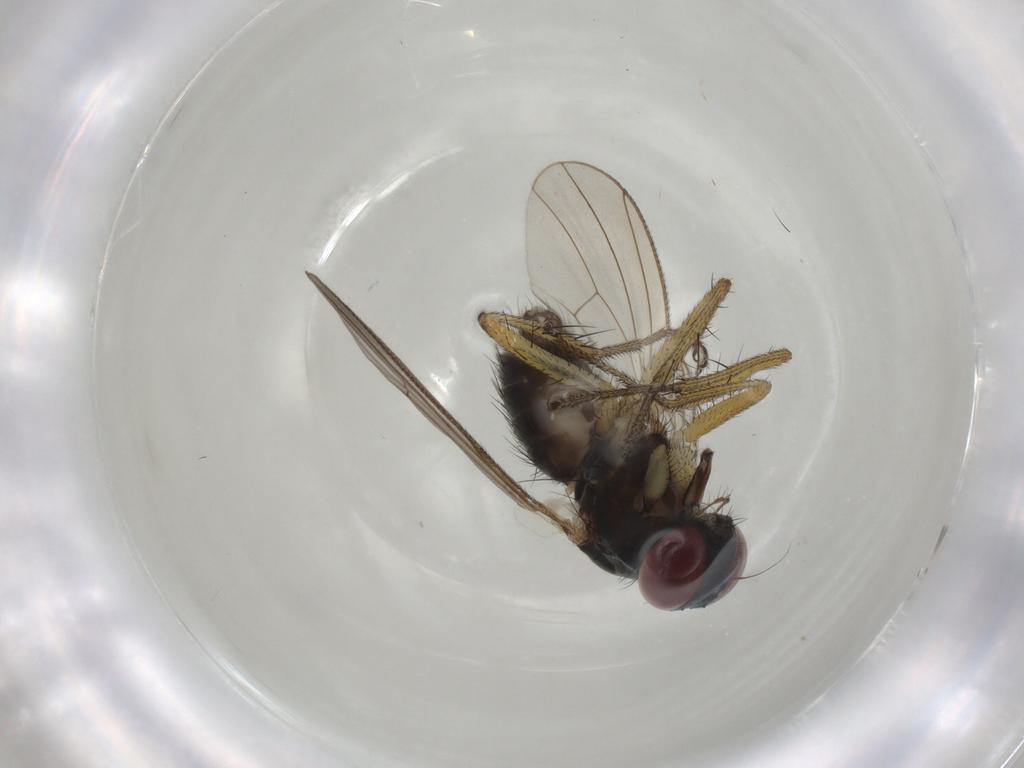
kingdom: Animalia
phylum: Arthropoda
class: Insecta
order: Diptera
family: Muscidae
